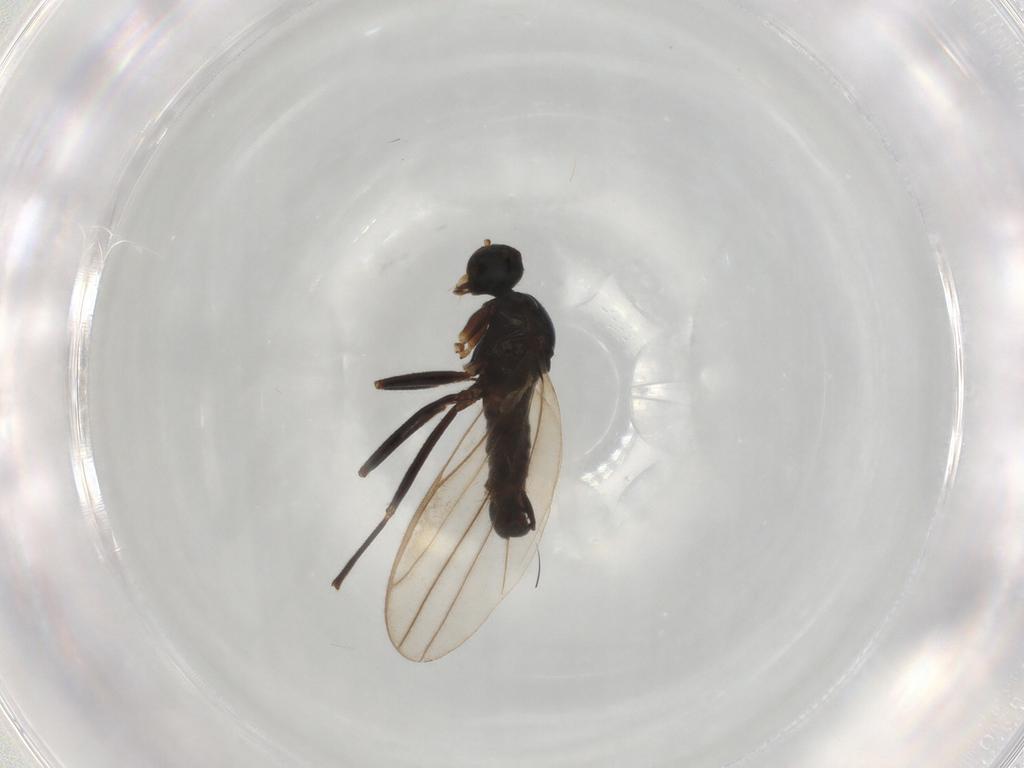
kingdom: Animalia
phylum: Arthropoda
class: Insecta
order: Diptera
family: Hybotidae
